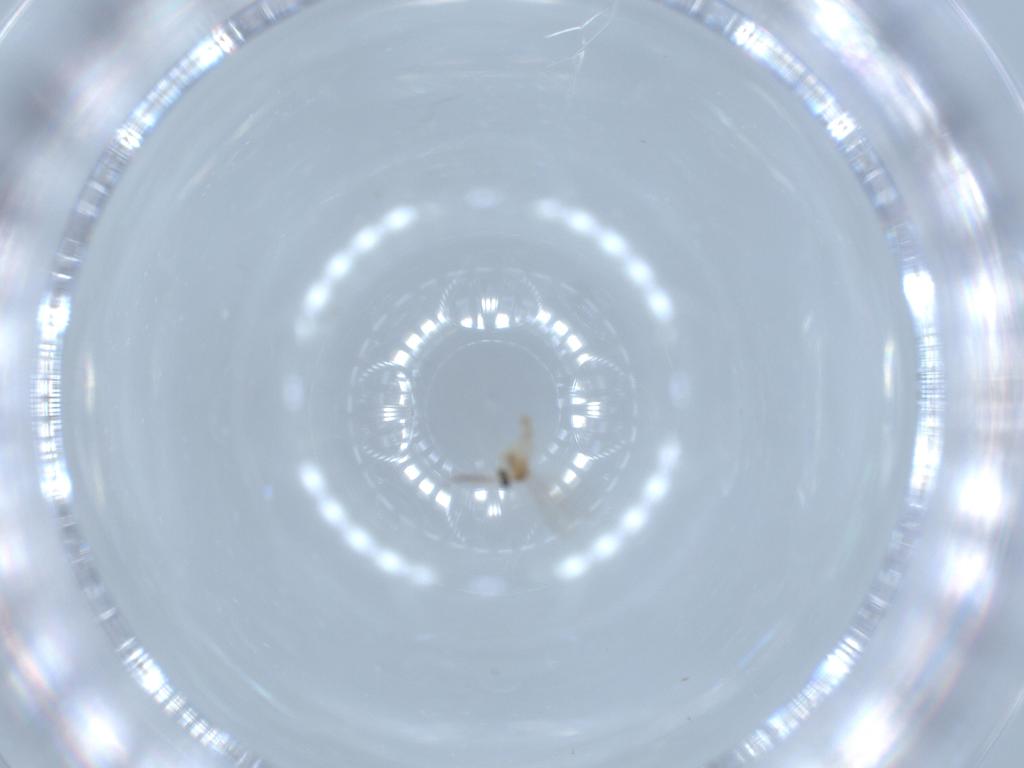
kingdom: Animalia
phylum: Arthropoda
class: Insecta
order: Diptera
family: Cecidomyiidae
